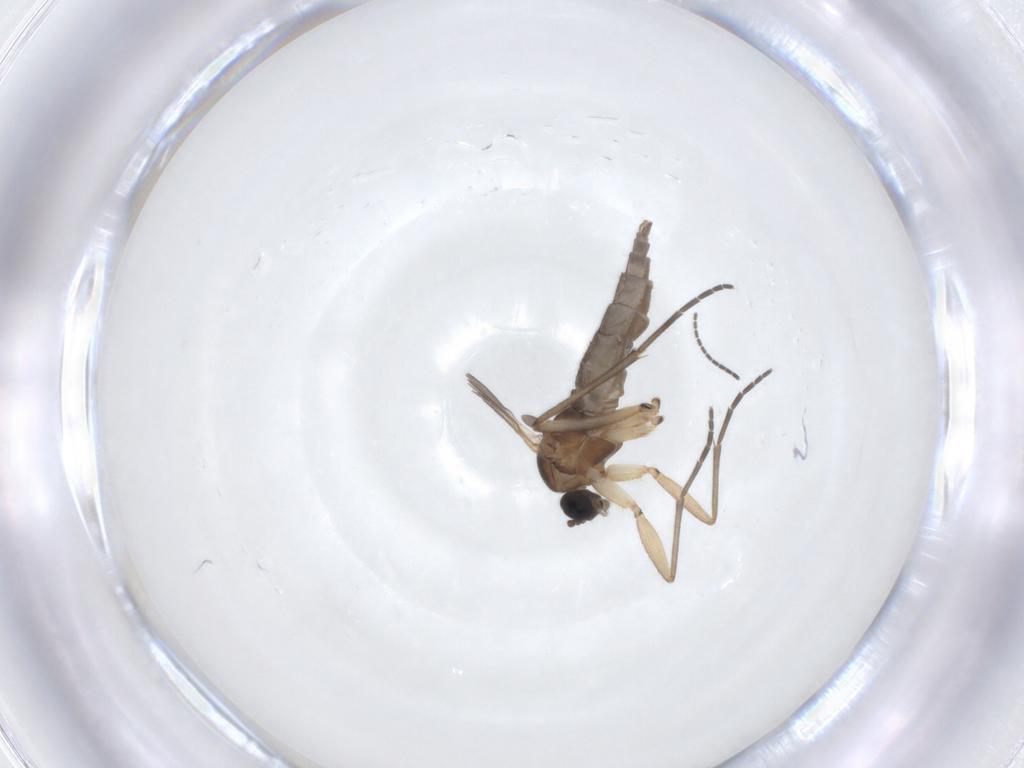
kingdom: Animalia
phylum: Arthropoda
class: Insecta
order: Diptera
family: Sciaridae
